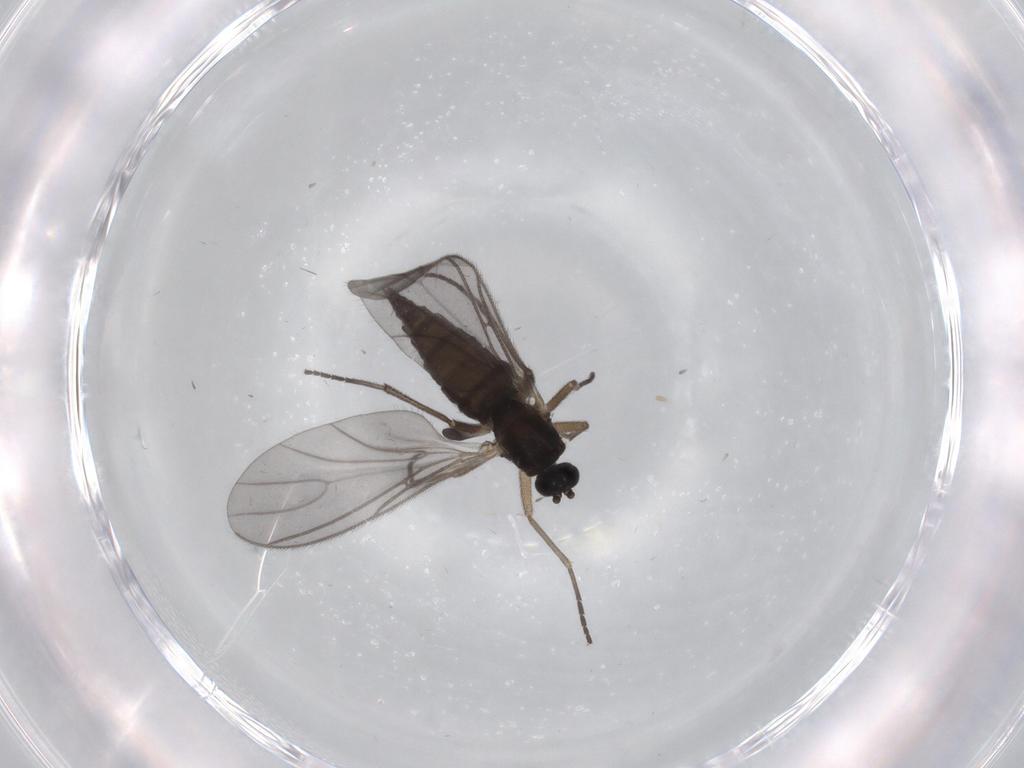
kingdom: Animalia
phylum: Arthropoda
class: Insecta
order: Diptera
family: Sciaridae
